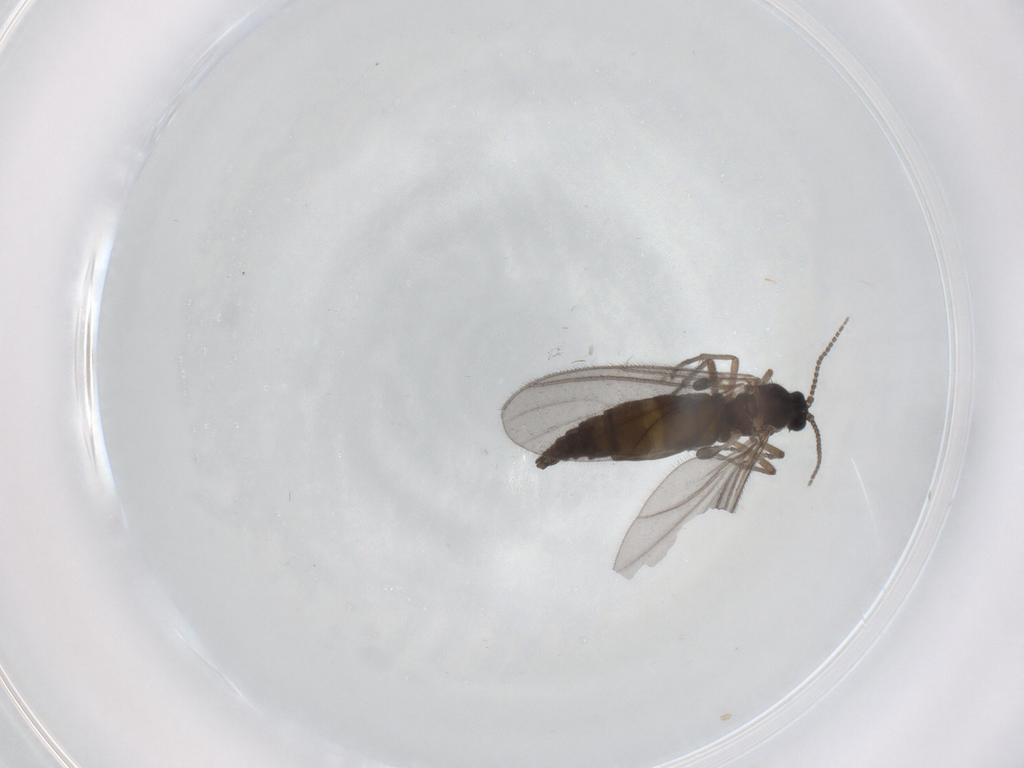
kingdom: Animalia
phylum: Arthropoda
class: Insecta
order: Diptera
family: Sciaridae
